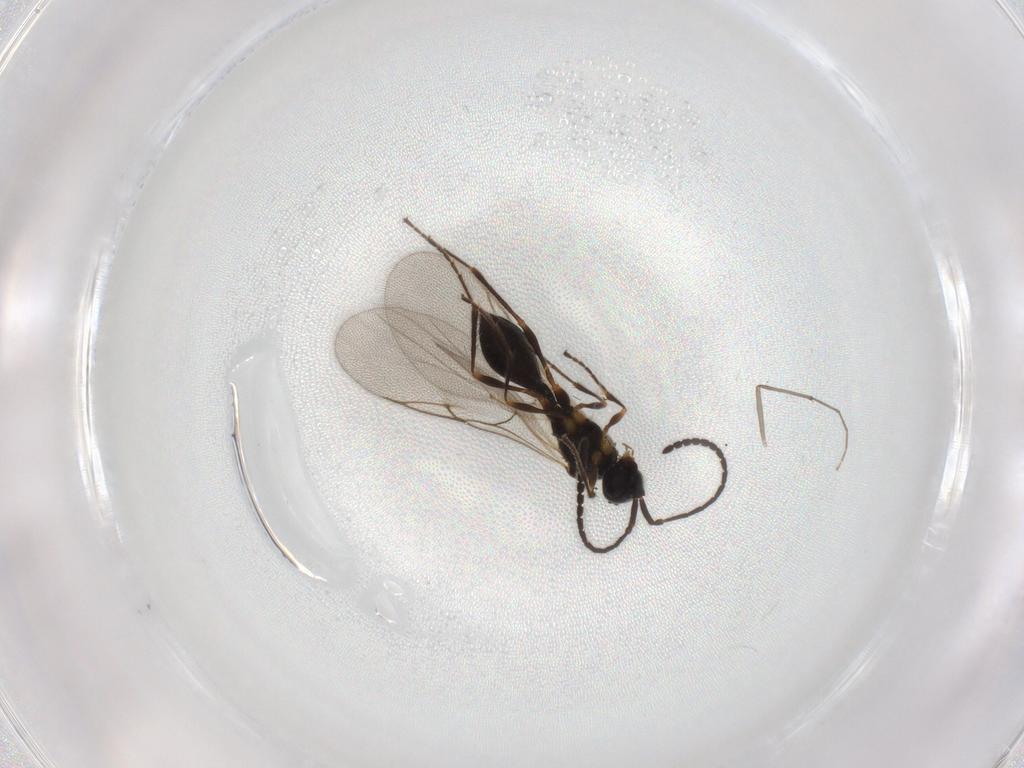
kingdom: Animalia
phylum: Arthropoda
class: Insecta
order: Hymenoptera
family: Diapriidae
